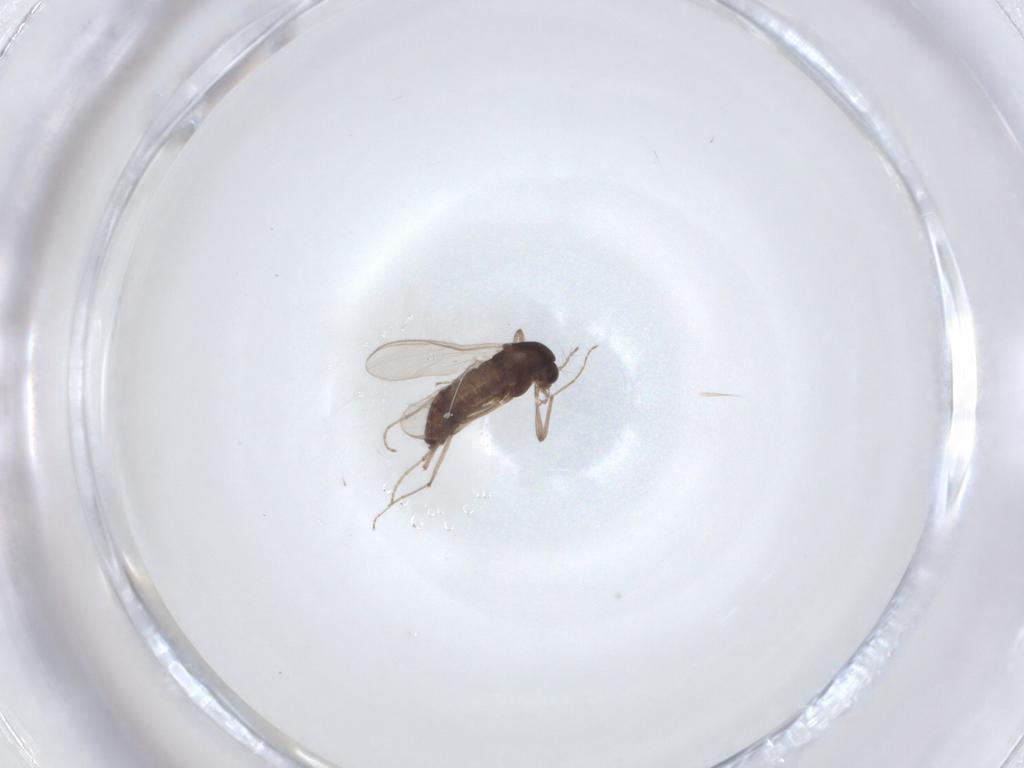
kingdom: Animalia
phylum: Arthropoda
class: Insecta
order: Diptera
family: Chironomidae
